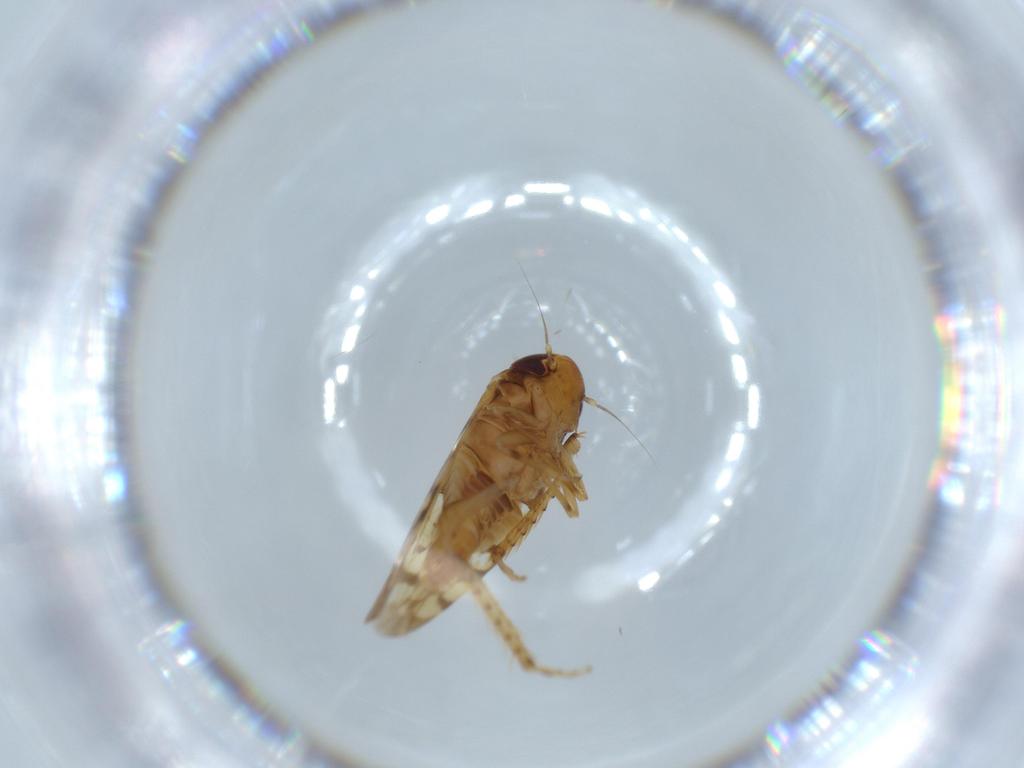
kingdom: Animalia
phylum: Arthropoda
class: Insecta
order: Hemiptera
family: Cicadellidae
